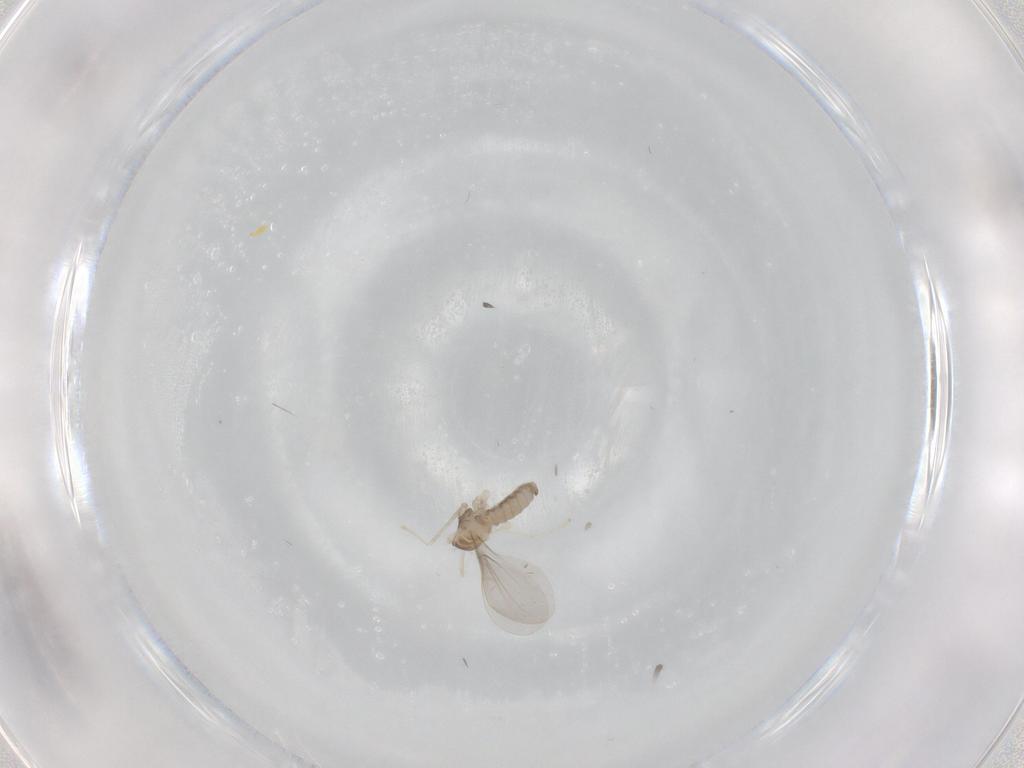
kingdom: Animalia
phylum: Arthropoda
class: Insecta
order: Diptera
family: Cecidomyiidae
